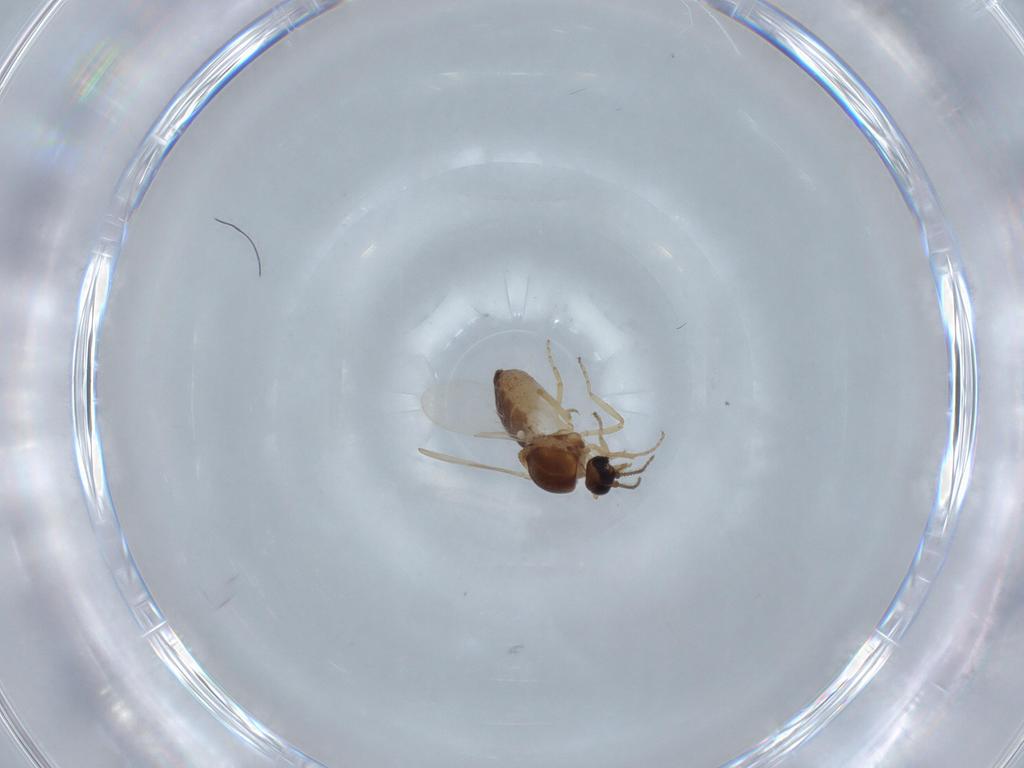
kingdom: Animalia
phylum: Arthropoda
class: Insecta
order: Diptera
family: Ceratopogonidae
